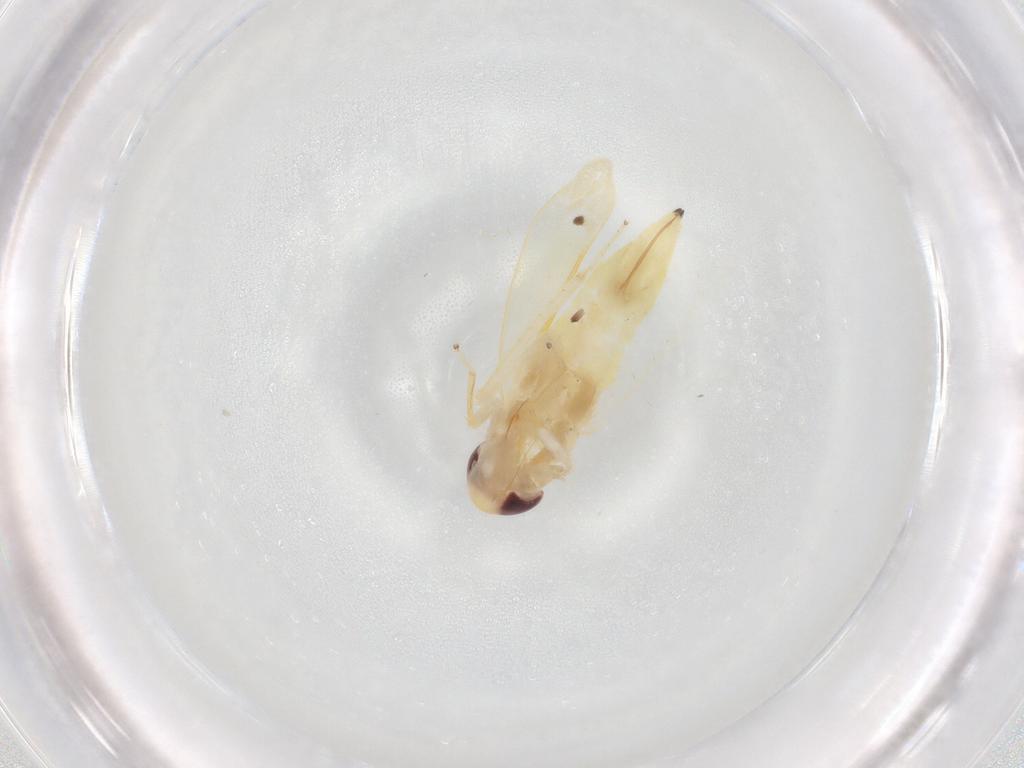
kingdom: Animalia
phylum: Arthropoda
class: Insecta
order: Hemiptera
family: Cicadellidae
